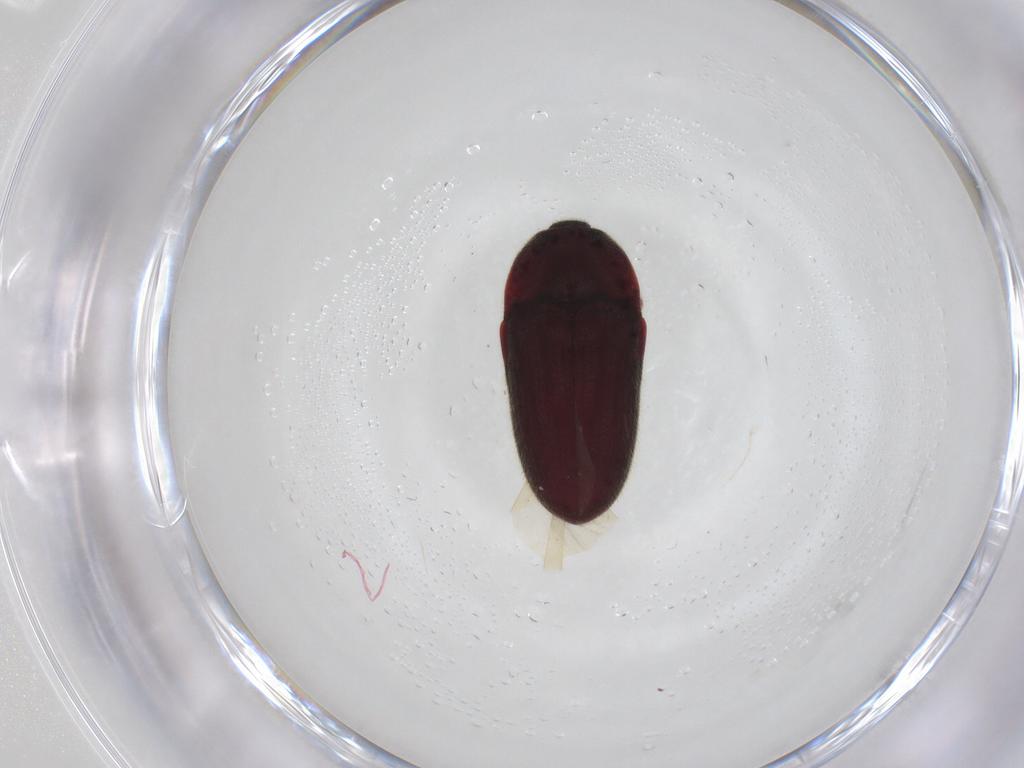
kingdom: Animalia
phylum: Arthropoda
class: Insecta
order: Coleoptera
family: Throscidae
